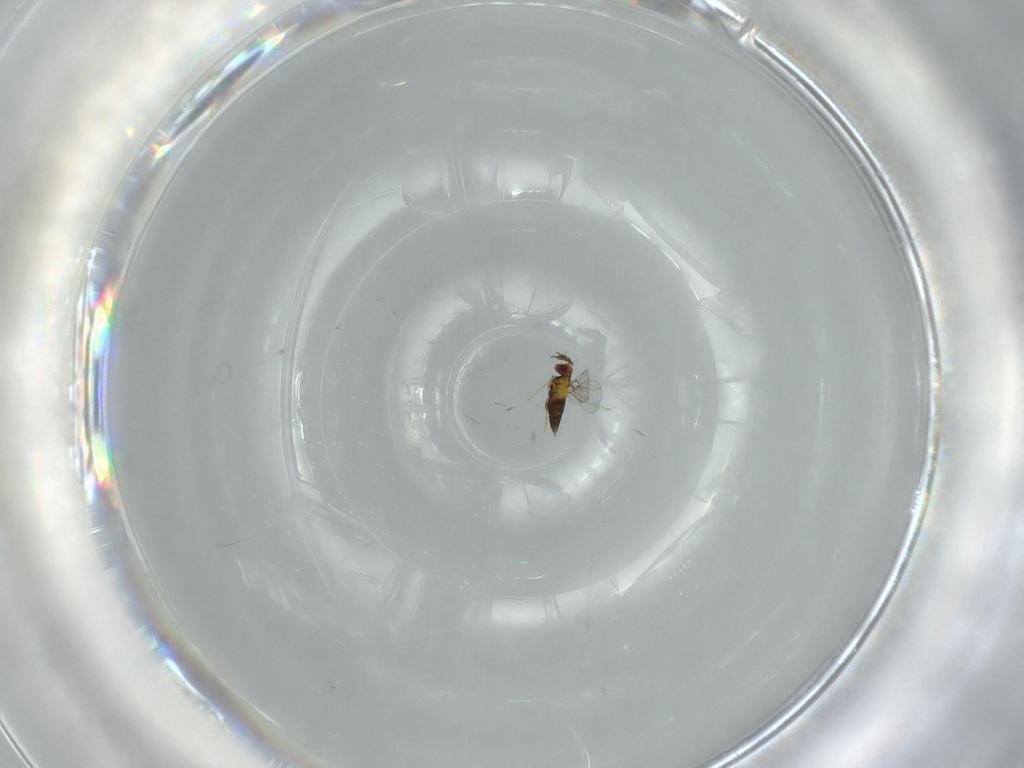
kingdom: Animalia
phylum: Arthropoda
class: Insecta
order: Hymenoptera
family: Trichogrammatidae
